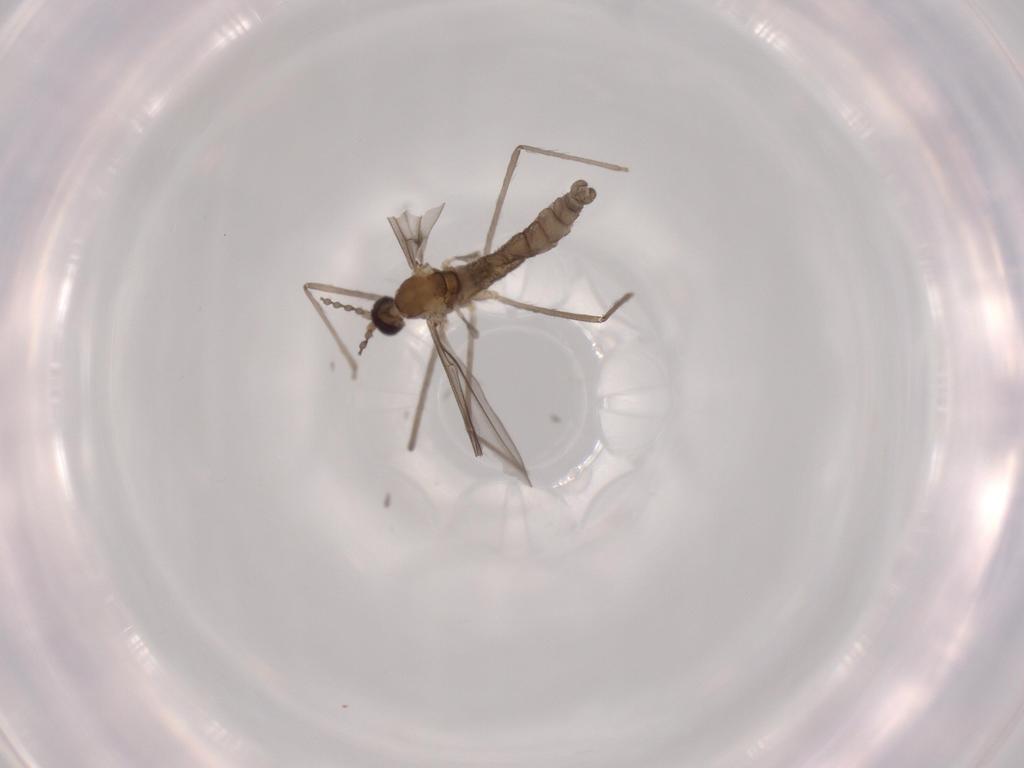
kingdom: Animalia
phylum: Arthropoda
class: Insecta
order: Diptera
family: Cecidomyiidae
